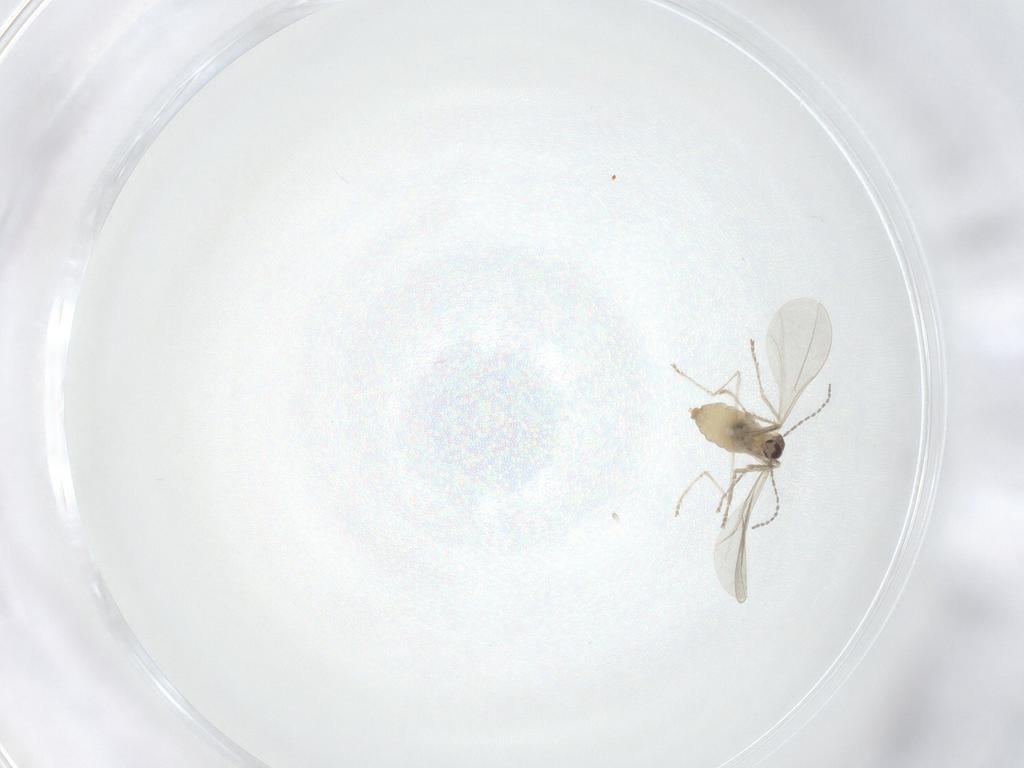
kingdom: Animalia
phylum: Arthropoda
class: Insecta
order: Diptera
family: Cecidomyiidae
